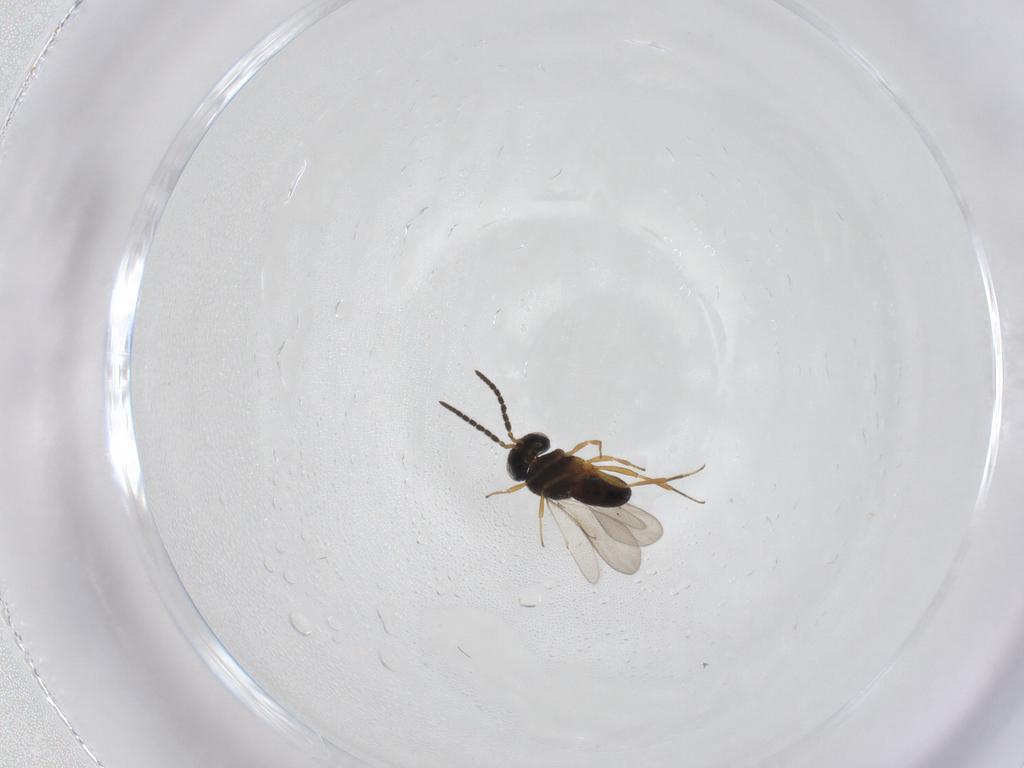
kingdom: Animalia
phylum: Arthropoda
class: Insecta
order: Coleoptera
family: Curculionidae
